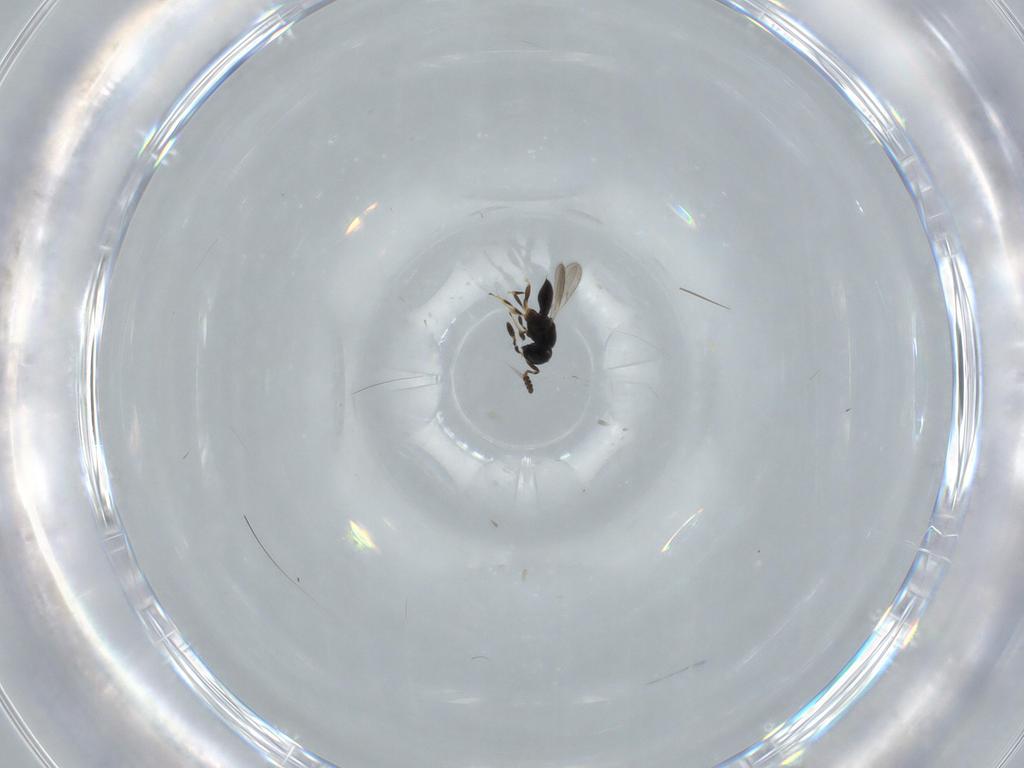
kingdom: Animalia
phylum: Arthropoda
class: Insecta
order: Hymenoptera
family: Scelionidae
